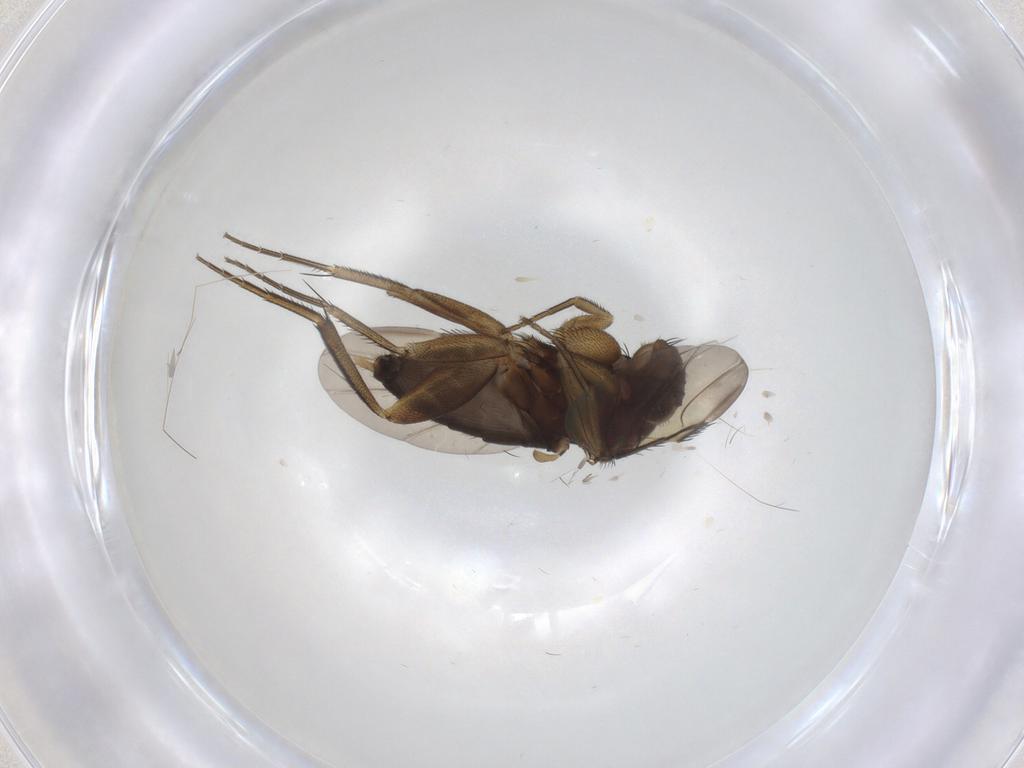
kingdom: Animalia
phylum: Arthropoda
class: Insecta
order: Diptera
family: Phoridae
